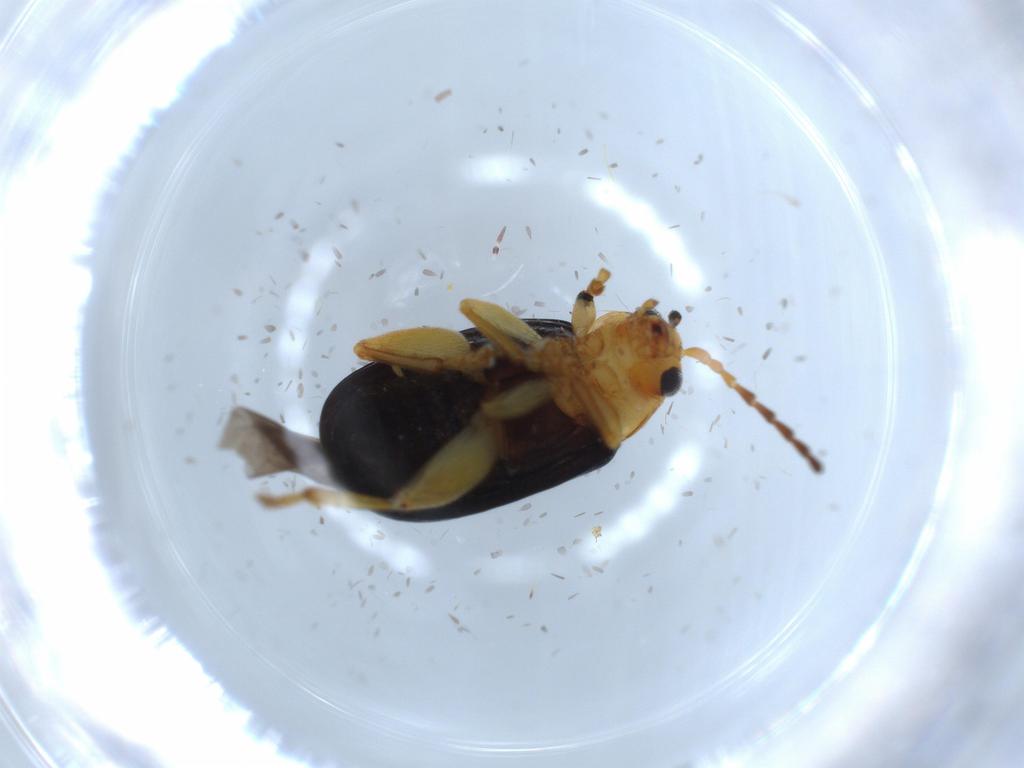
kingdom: Animalia
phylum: Arthropoda
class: Insecta
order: Coleoptera
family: Chrysomelidae
